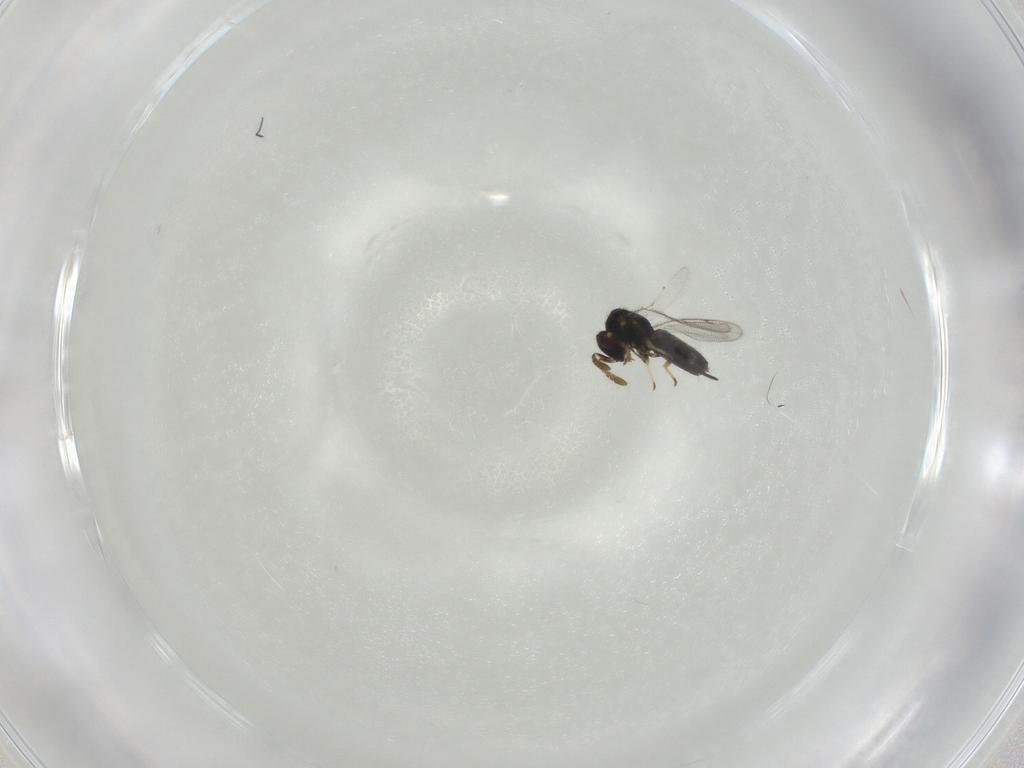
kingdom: Animalia
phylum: Arthropoda
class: Insecta
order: Hymenoptera
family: Pirenidae
